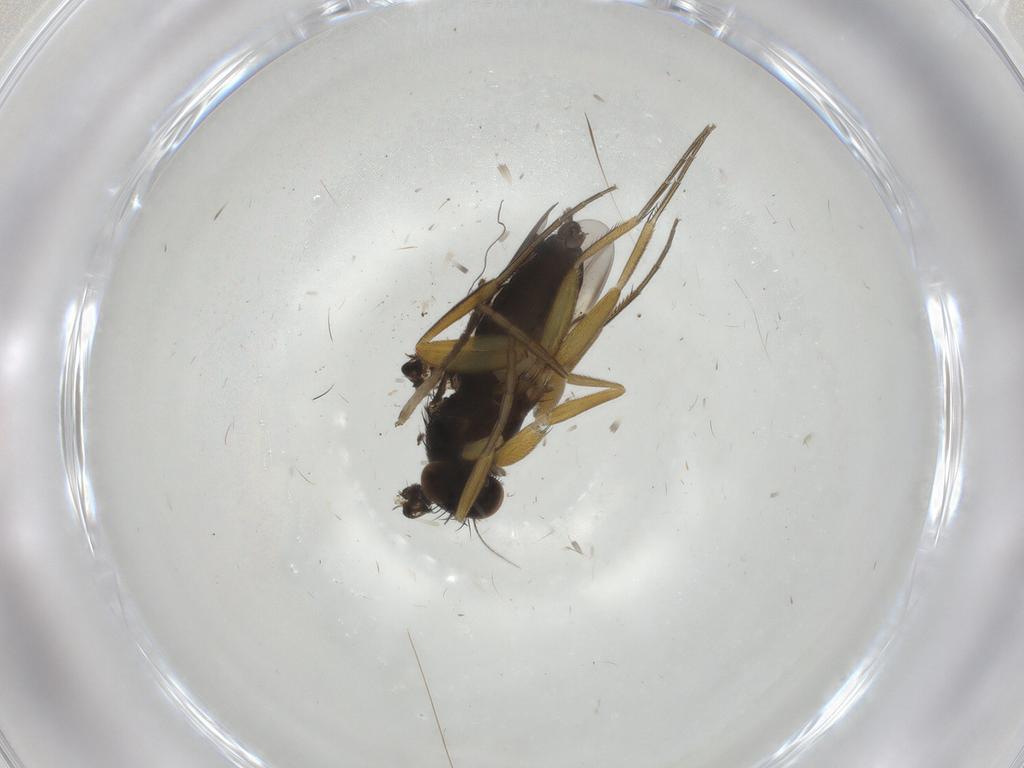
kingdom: Animalia
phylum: Arthropoda
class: Insecta
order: Diptera
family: Psychodidae
